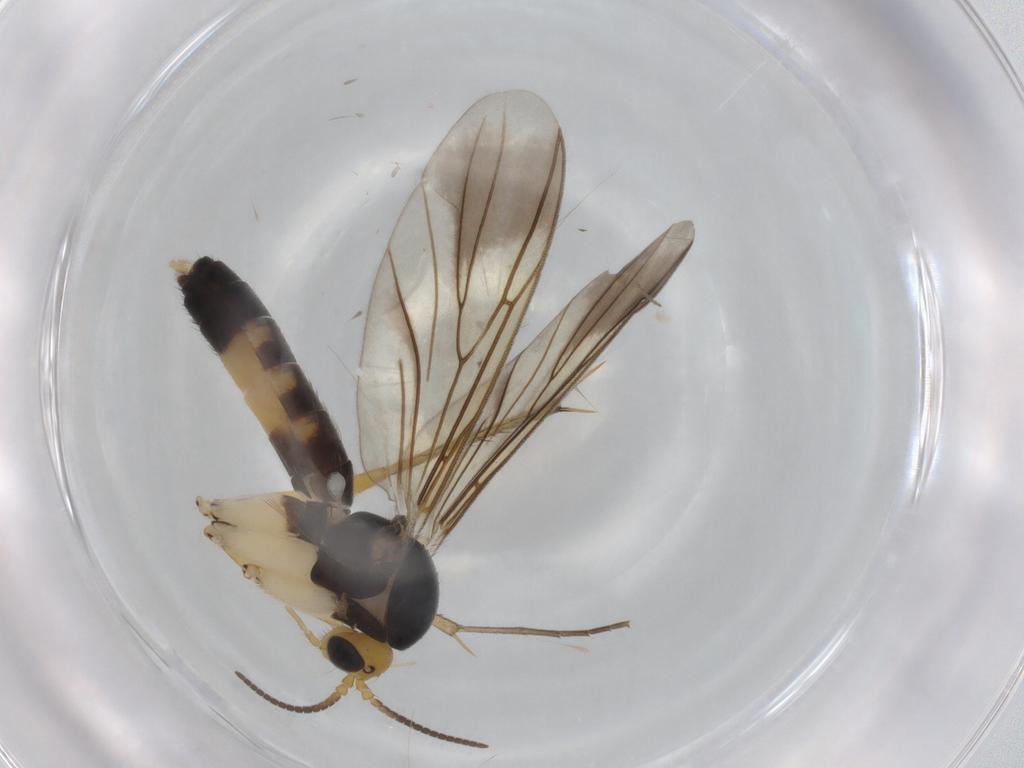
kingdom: Animalia
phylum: Arthropoda
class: Insecta
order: Diptera
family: Mycetophilidae
